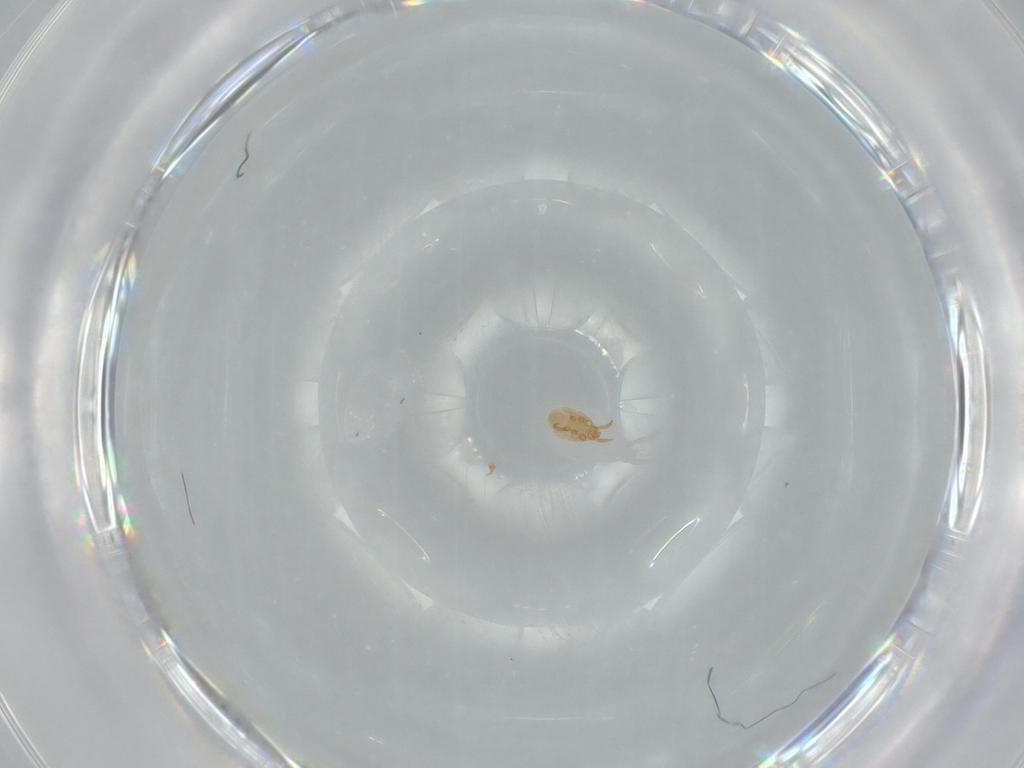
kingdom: Animalia
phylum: Arthropoda
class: Arachnida
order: Mesostigmata
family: Dinychidae
